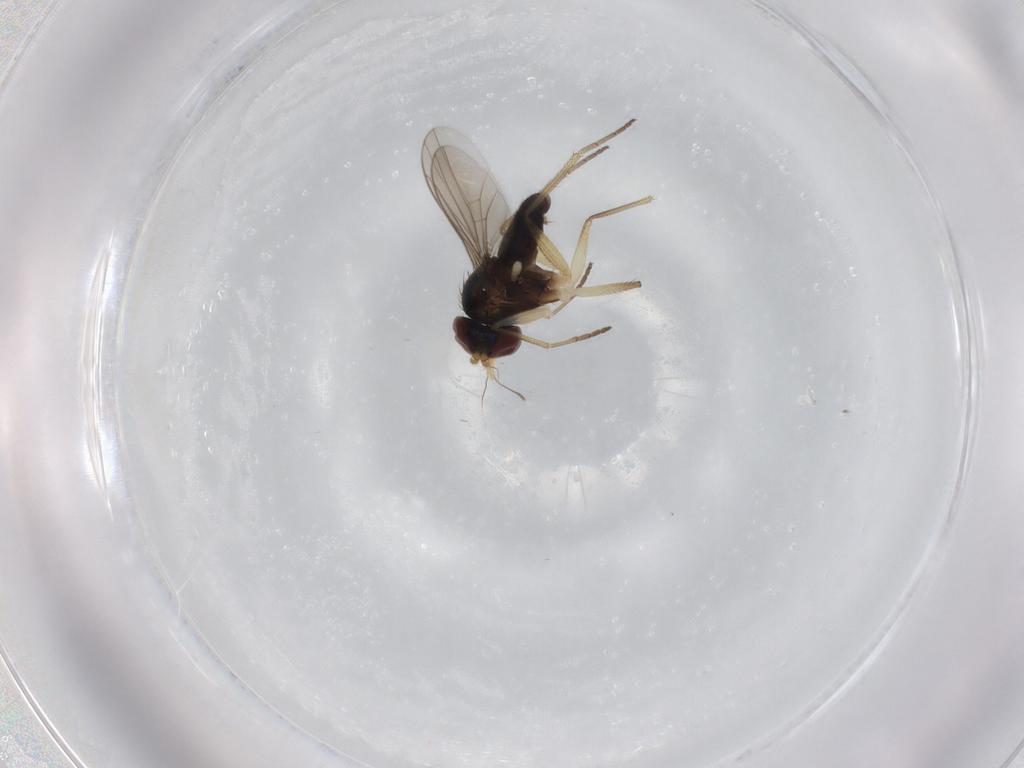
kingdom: Animalia
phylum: Arthropoda
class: Insecta
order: Diptera
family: Dolichopodidae
